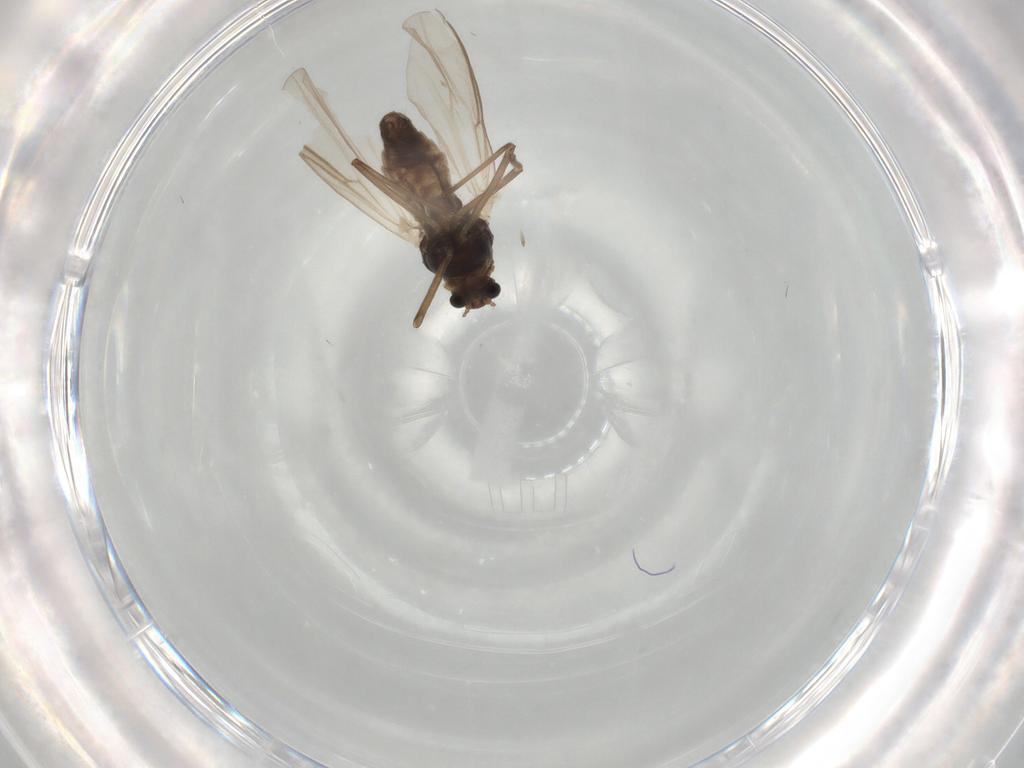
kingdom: Animalia
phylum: Arthropoda
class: Insecta
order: Diptera
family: Chironomidae
